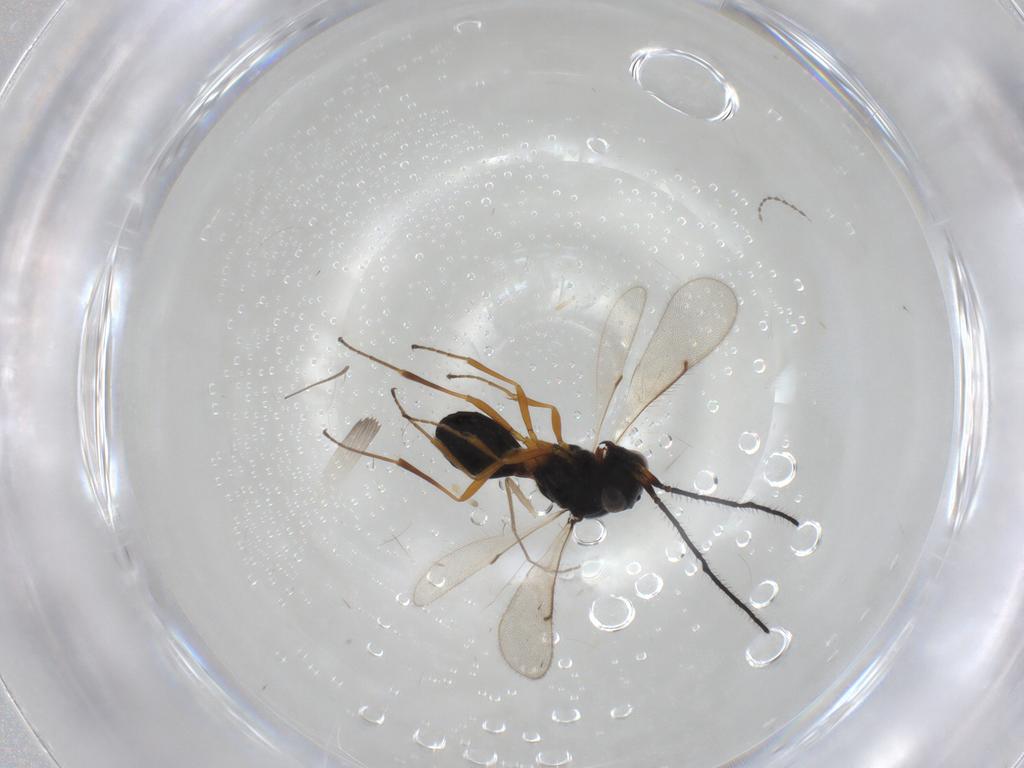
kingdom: Animalia
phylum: Arthropoda
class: Insecta
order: Hymenoptera
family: Scelionidae
